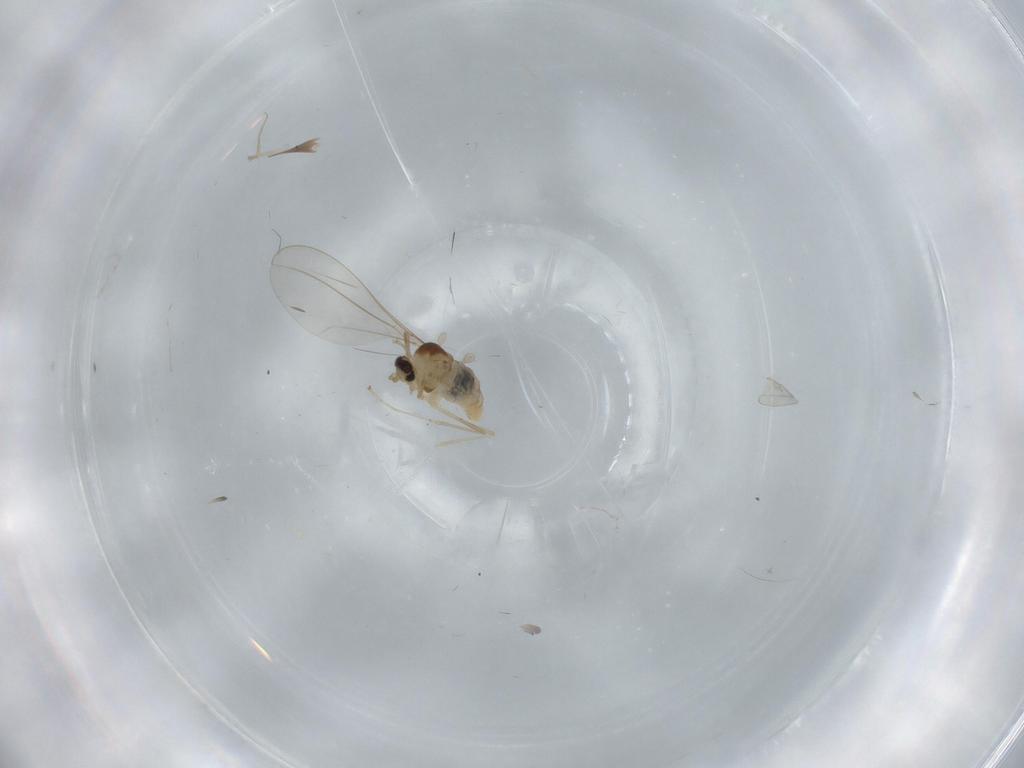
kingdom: Animalia
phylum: Arthropoda
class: Insecta
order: Diptera
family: Cecidomyiidae
